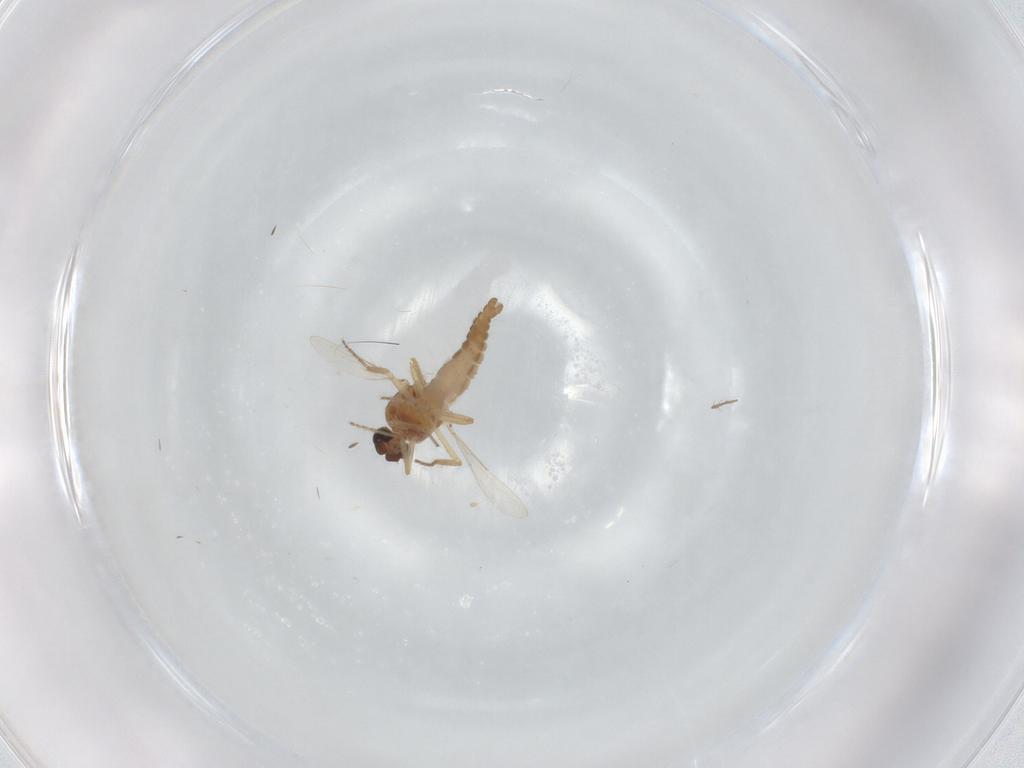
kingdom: Animalia
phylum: Arthropoda
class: Insecta
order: Diptera
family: Ceratopogonidae
